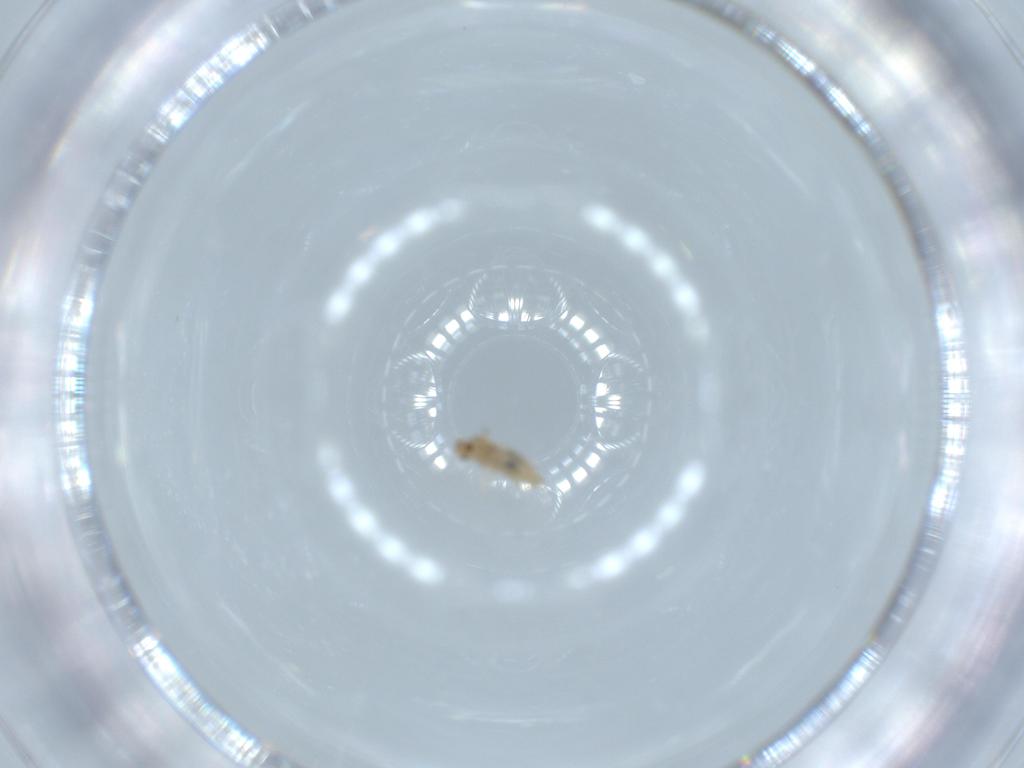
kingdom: Animalia
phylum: Arthropoda
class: Insecta
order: Diptera
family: Cecidomyiidae
